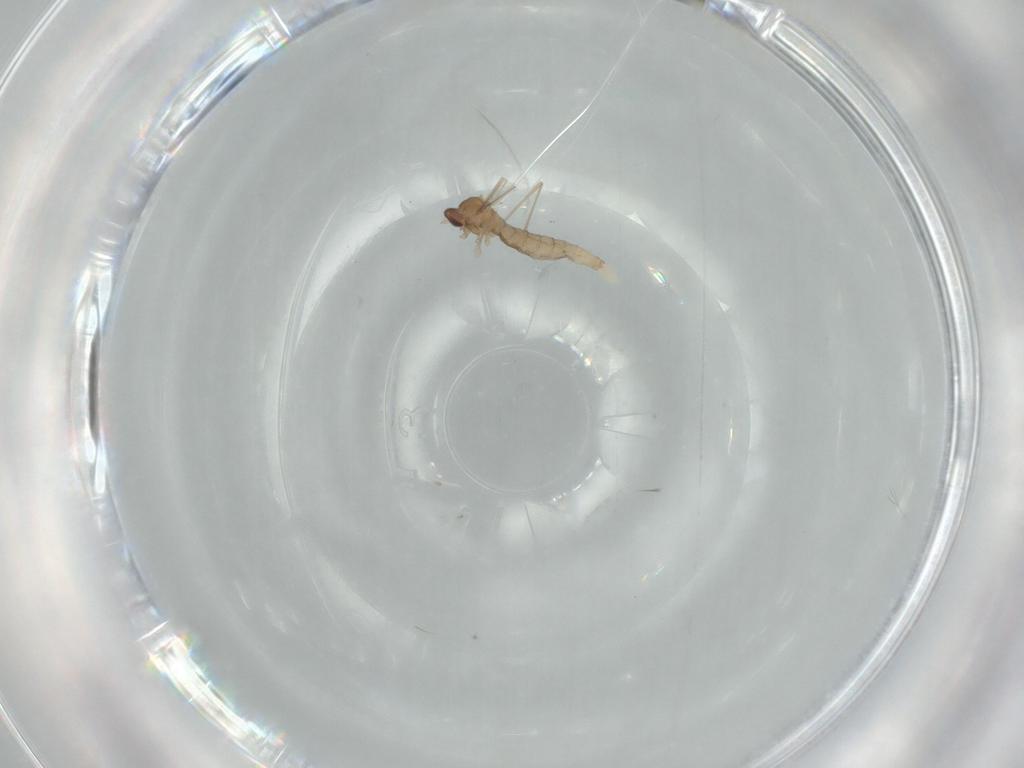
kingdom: Animalia
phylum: Arthropoda
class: Insecta
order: Diptera
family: Cecidomyiidae
